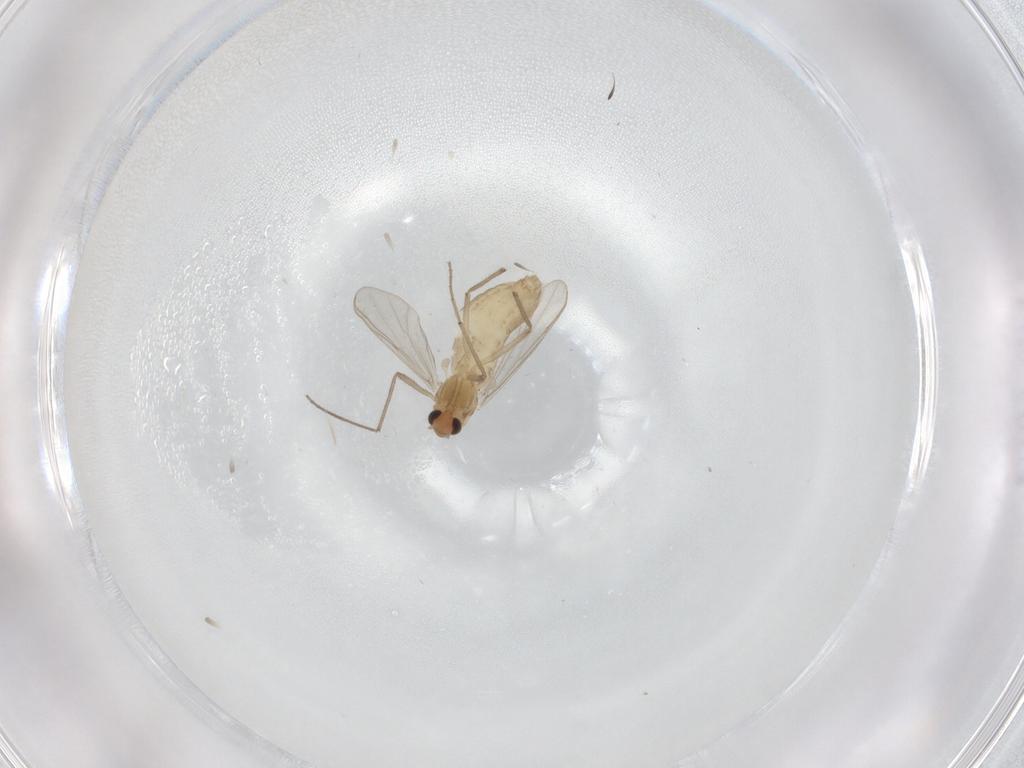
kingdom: Animalia
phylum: Arthropoda
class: Insecta
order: Diptera
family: Chironomidae
